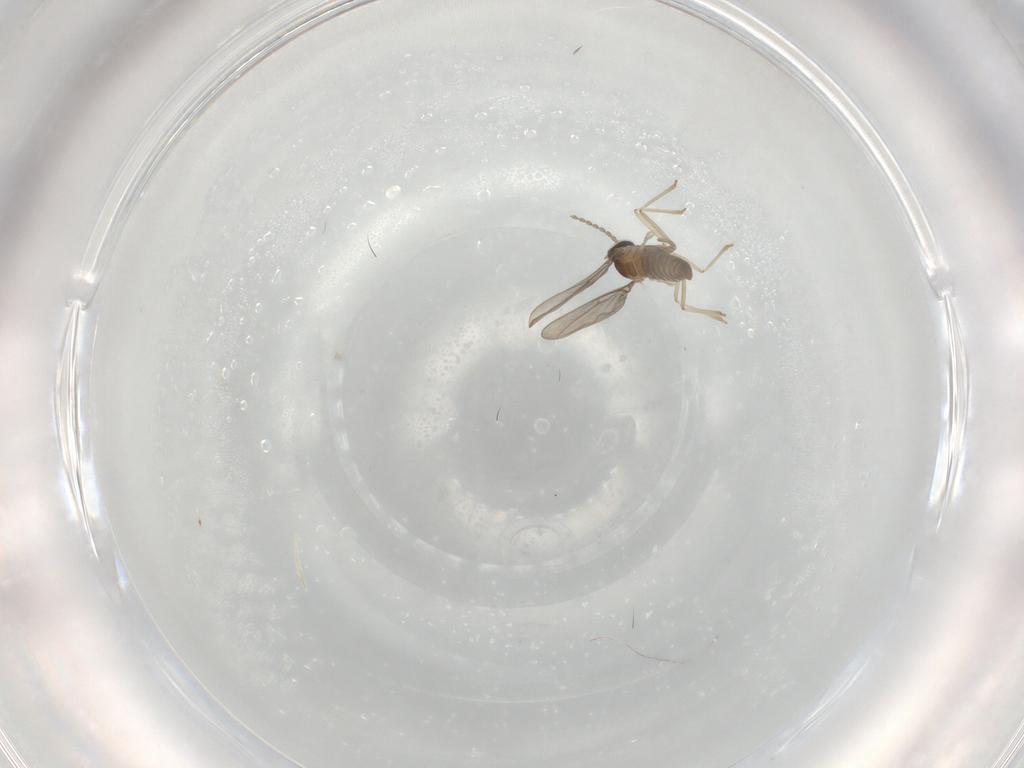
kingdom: Animalia
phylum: Arthropoda
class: Insecta
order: Diptera
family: Cecidomyiidae
